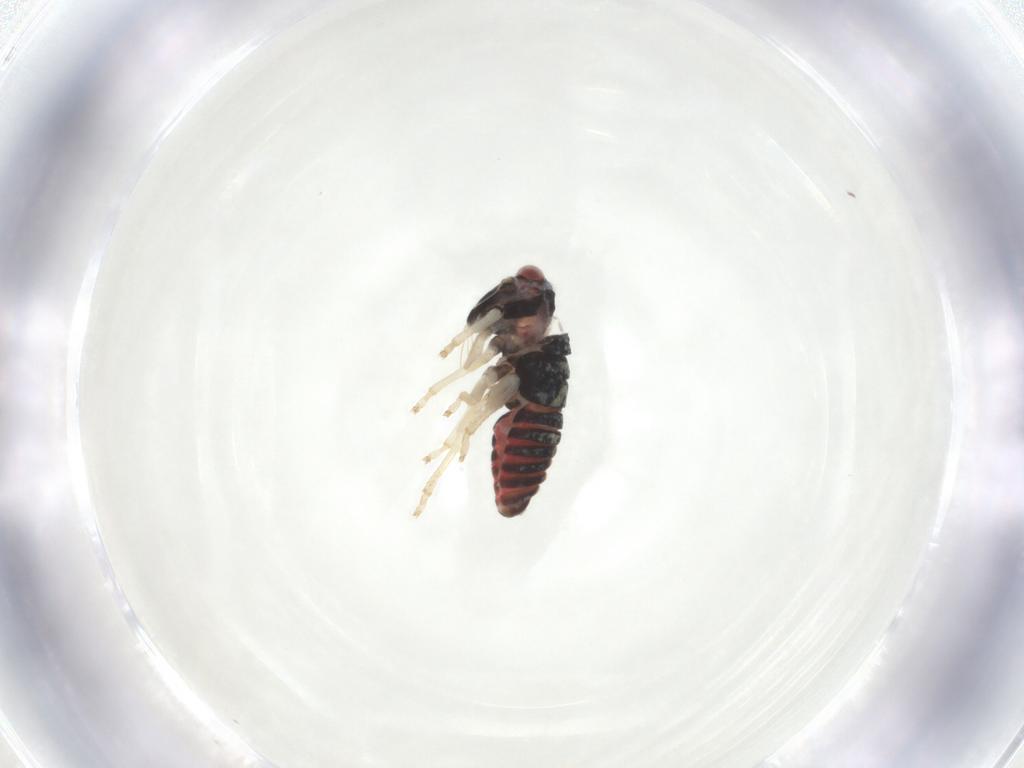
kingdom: Animalia
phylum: Arthropoda
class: Insecta
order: Hemiptera
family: Cicadellidae
